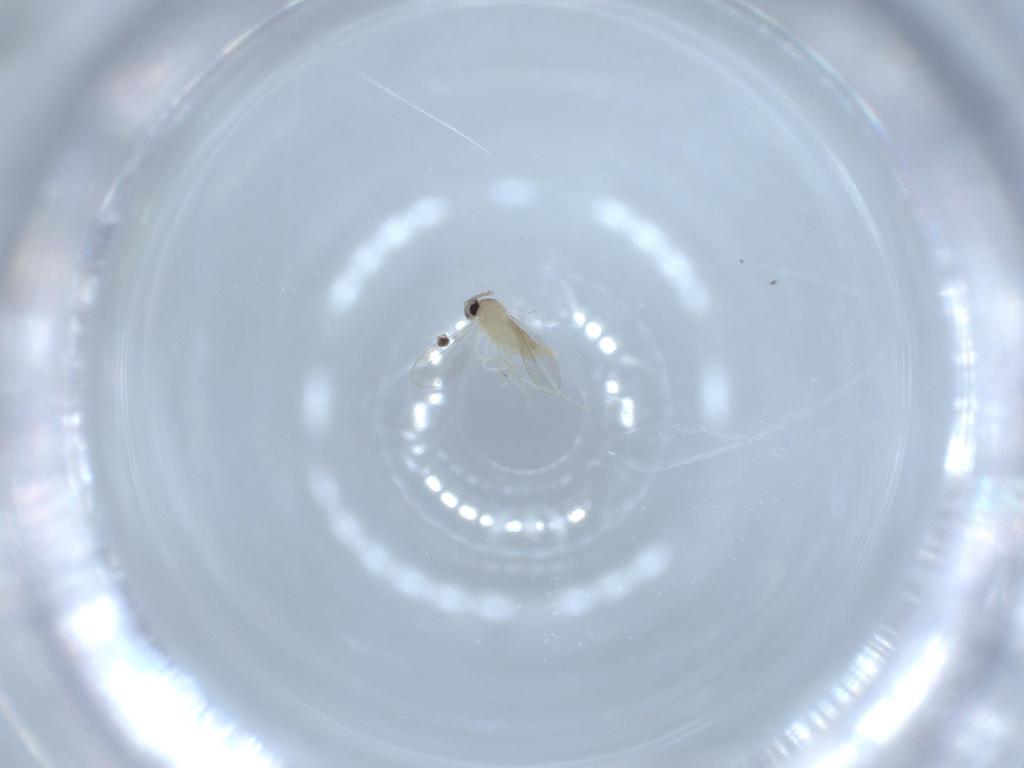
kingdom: Animalia
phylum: Arthropoda
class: Insecta
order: Diptera
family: Cecidomyiidae
